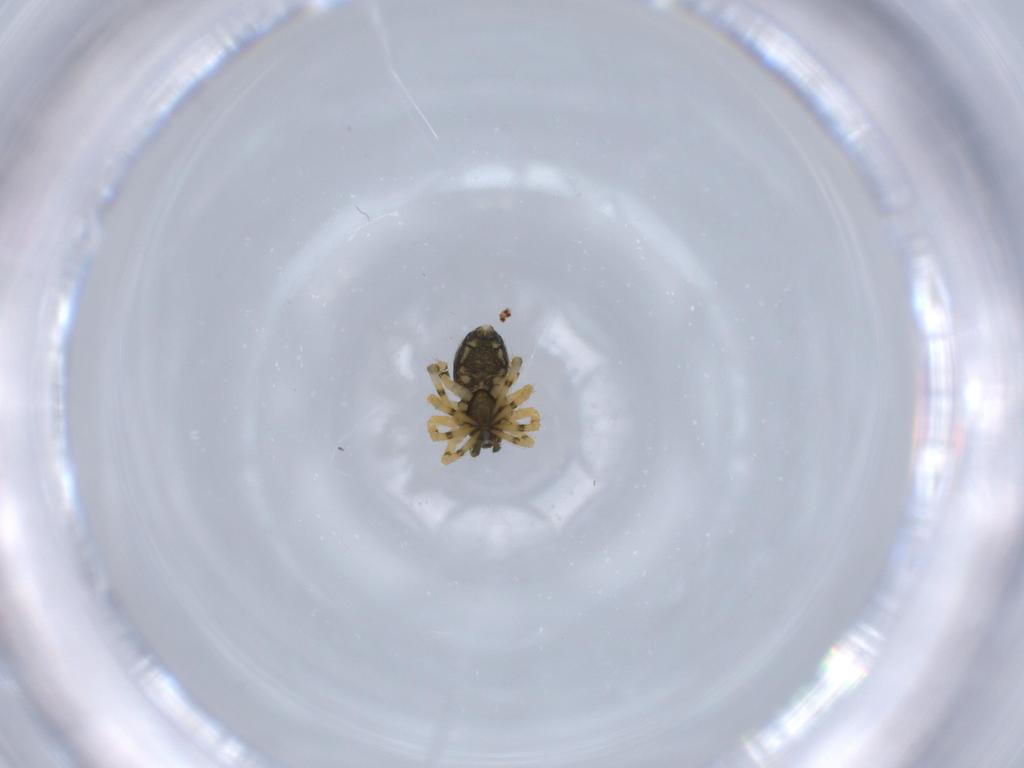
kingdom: Animalia
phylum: Arthropoda
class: Arachnida
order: Araneae
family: Theridiidae
